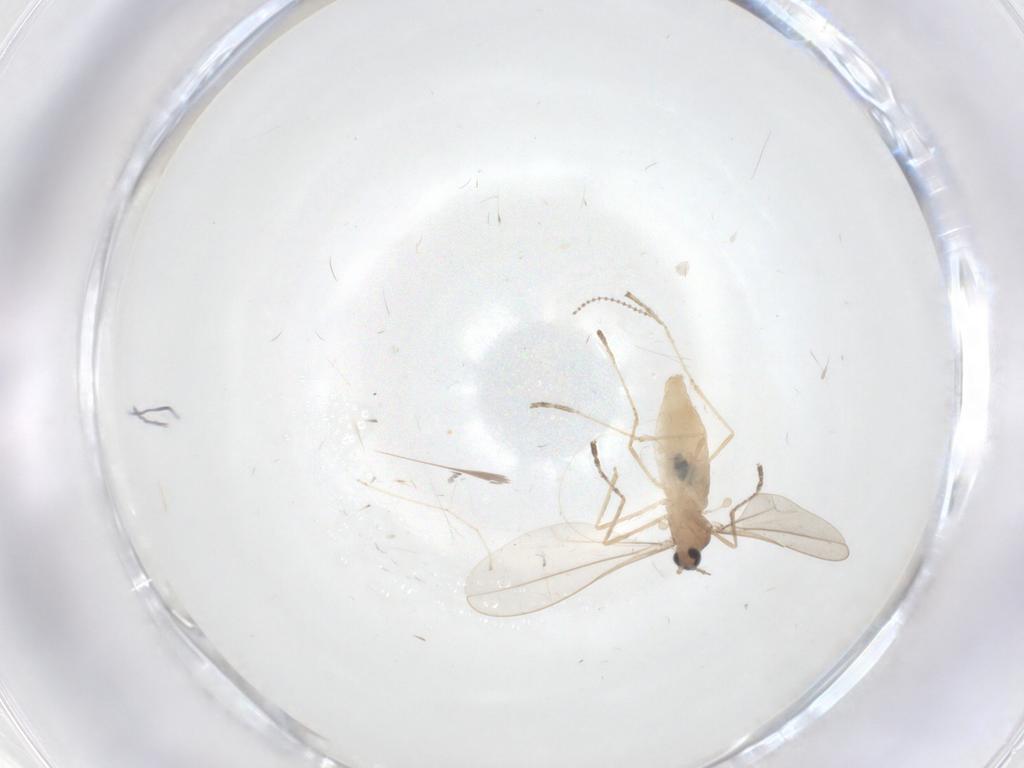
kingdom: Animalia
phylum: Arthropoda
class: Insecta
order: Diptera
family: Cecidomyiidae
